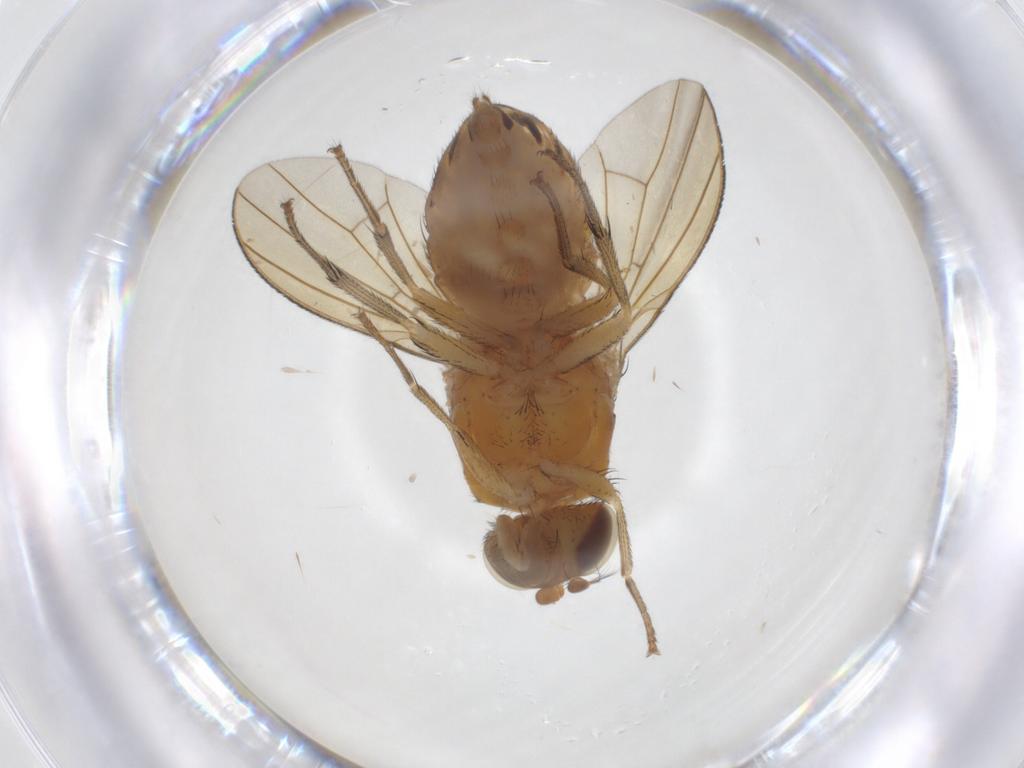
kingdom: Animalia
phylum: Arthropoda
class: Insecta
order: Diptera
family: Lauxaniidae
